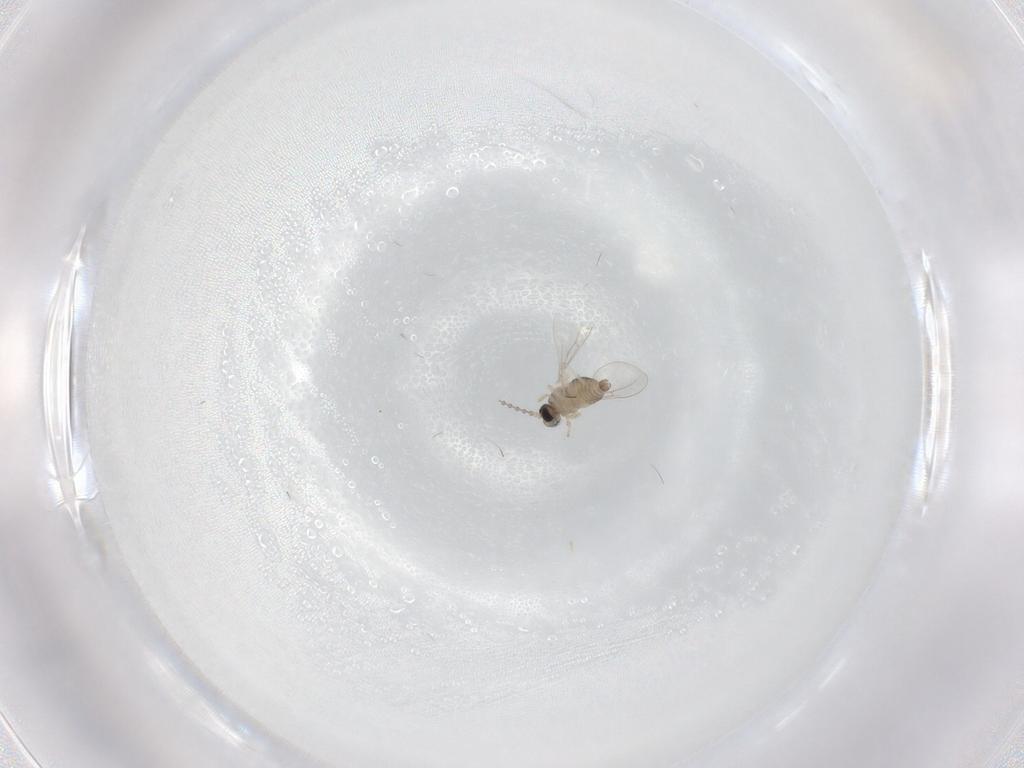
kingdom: Animalia
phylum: Arthropoda
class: Insecta
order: Diptera
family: Cecidomyiidae
